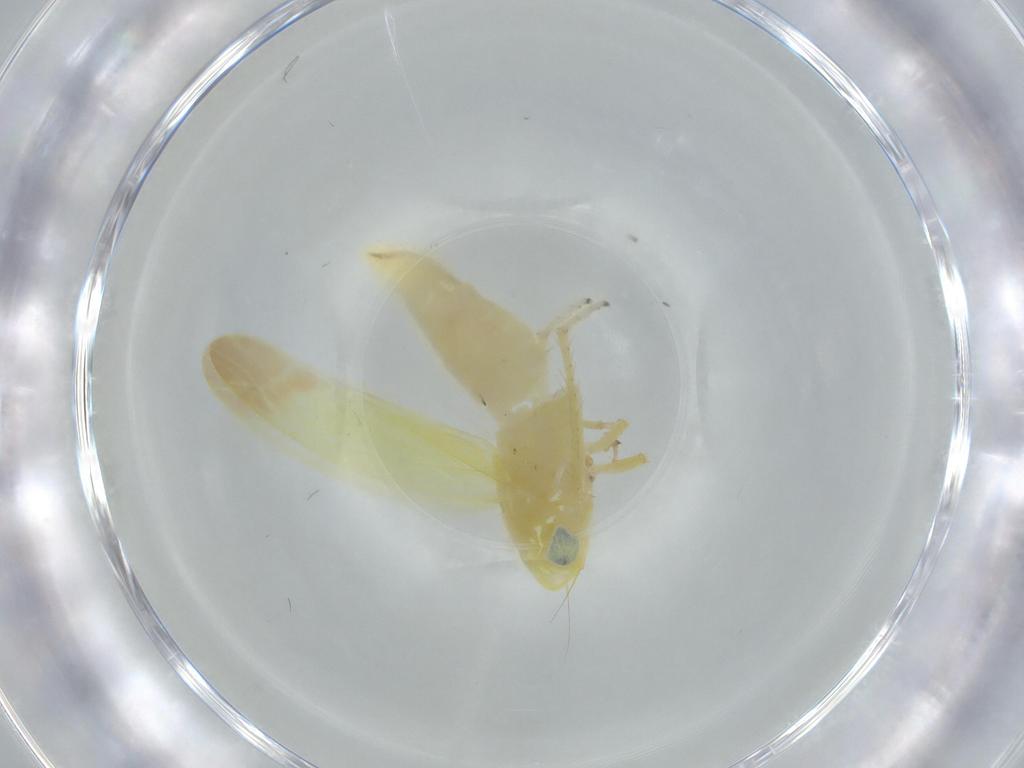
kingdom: Animalia
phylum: Arthropoda
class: Insecta
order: Hemiptera
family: Cicadellidae
